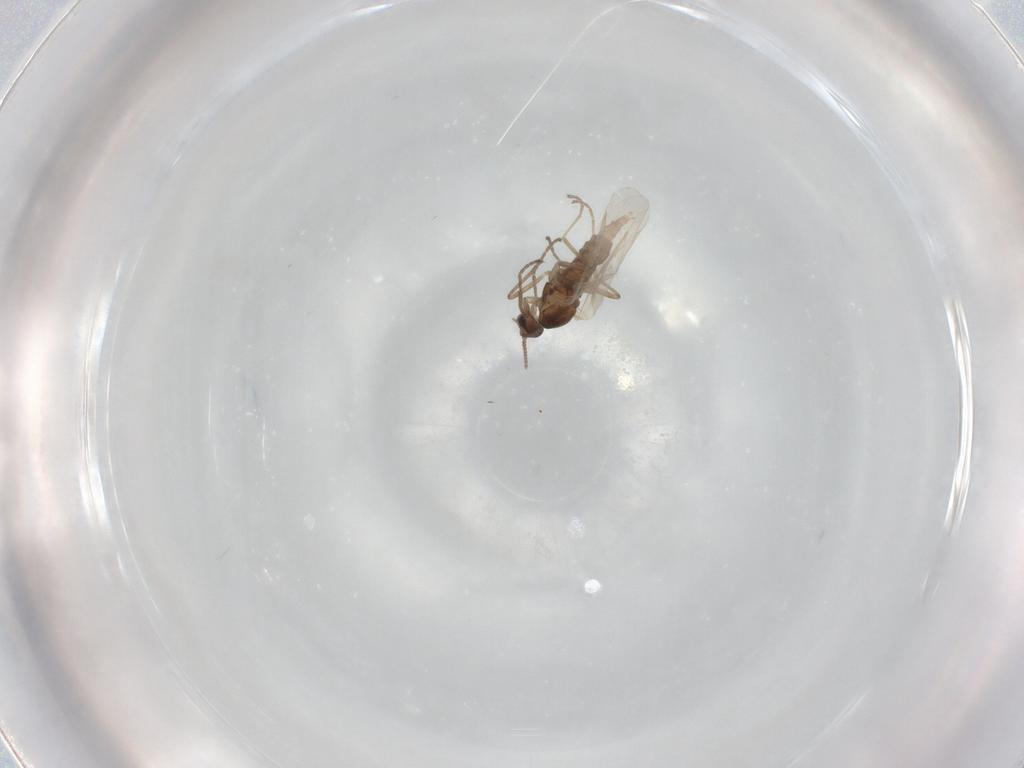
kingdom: Animalia
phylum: Arthropoda
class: Insecta
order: Diptera
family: Cecidomyiidae
